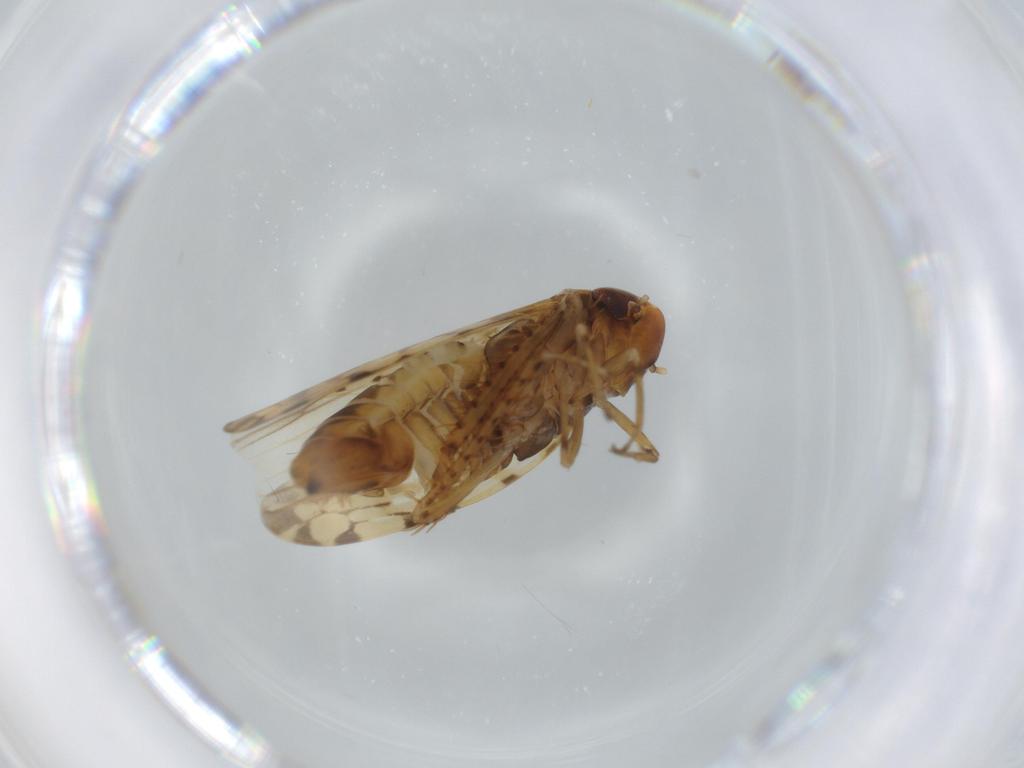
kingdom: Animalia
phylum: Arthropoda
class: Insecta
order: Hemiptera
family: Cicadellidae
